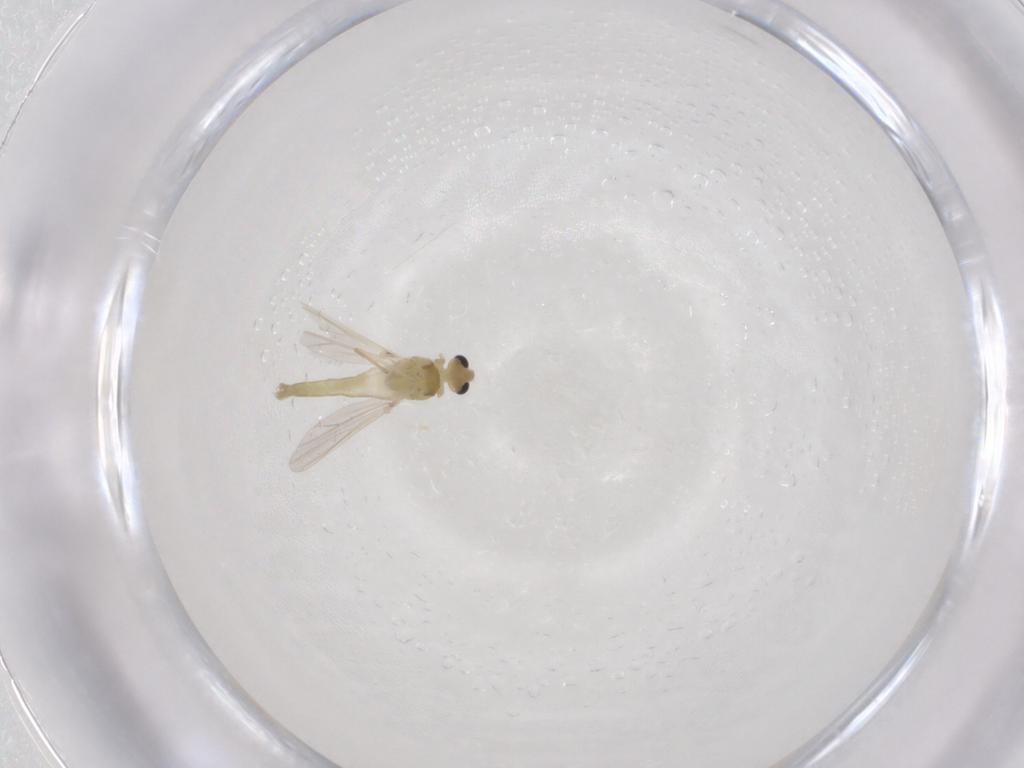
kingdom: Animalia
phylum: Arthropoda
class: Insecta
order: Diptera
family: Chironomidae
